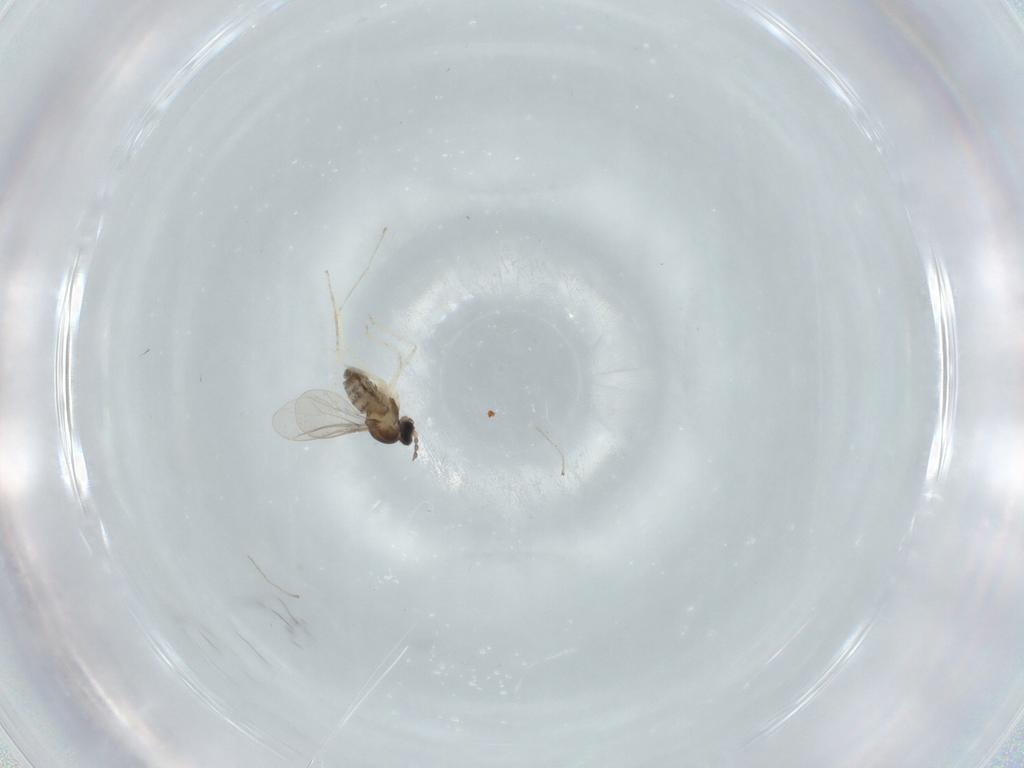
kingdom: Animalia
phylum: Arthropoda
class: Insecta
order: Diptera
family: Cecidomyiidae
